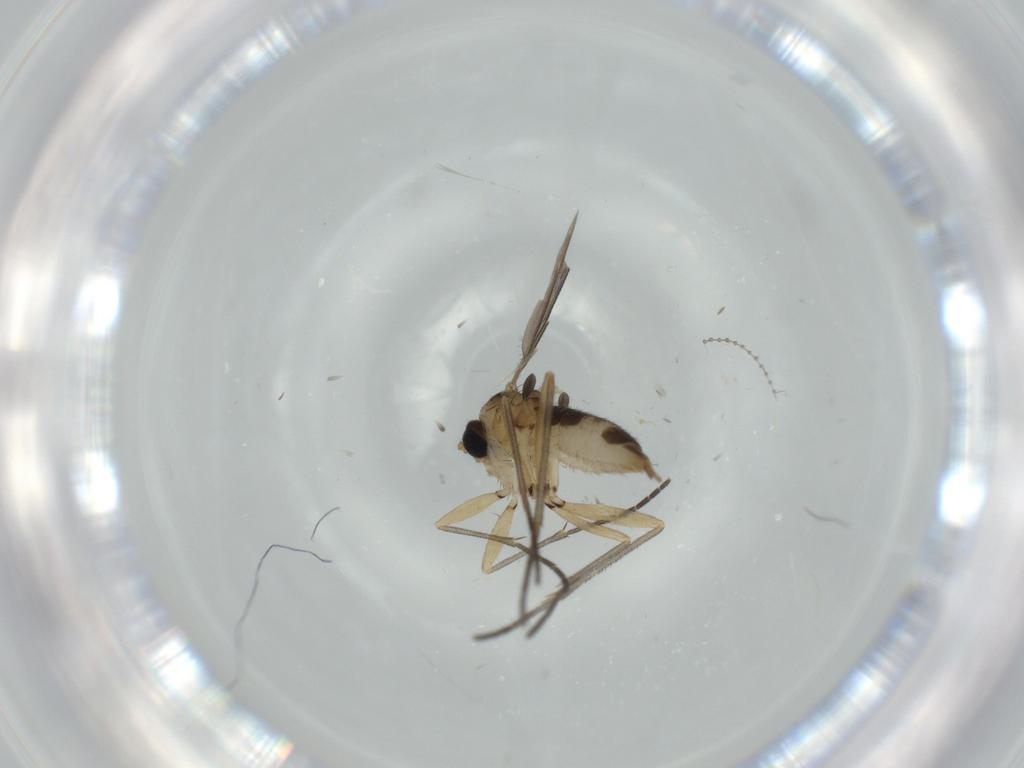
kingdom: Animalia
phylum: Arthropoda
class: Insecta
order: Diptera
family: Sciaridae
